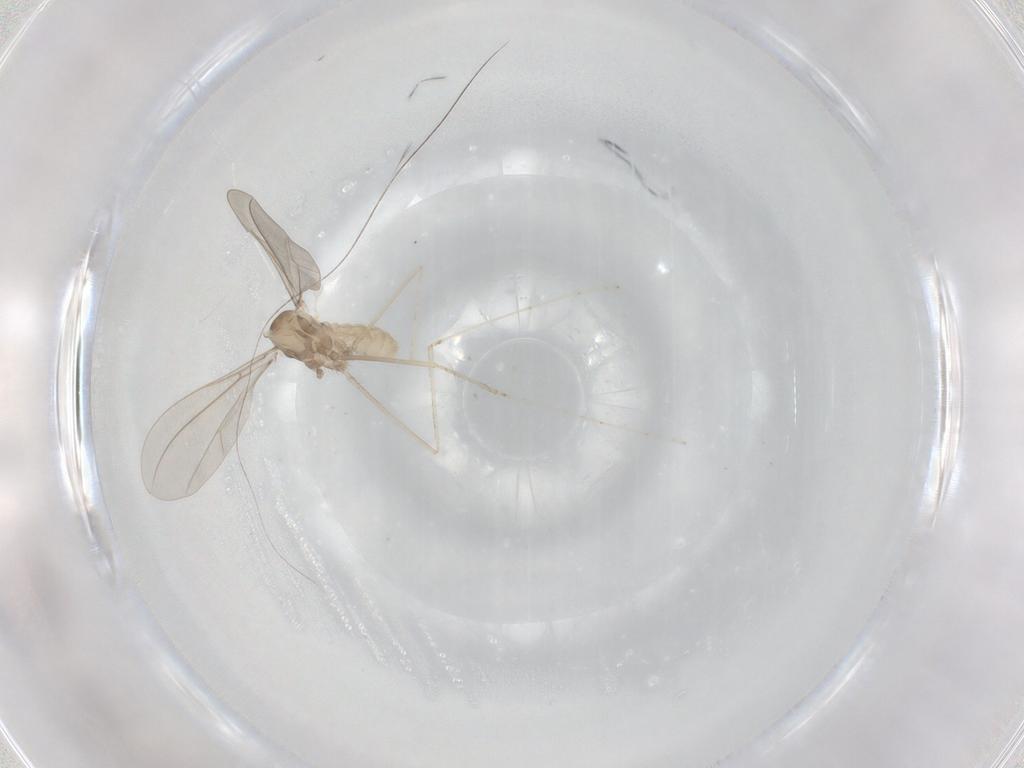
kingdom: Animalia
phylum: Arthropoda
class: Insecta
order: Diptera
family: Cecidomyiidae
